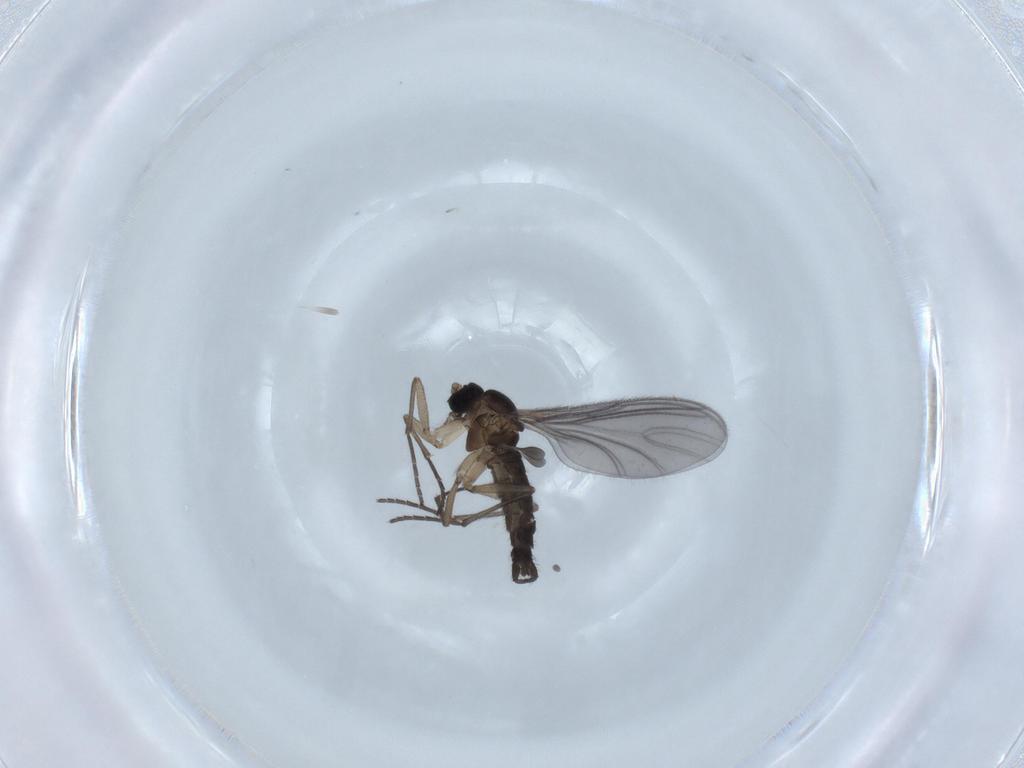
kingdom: Animalia
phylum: Arthropoda
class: Insecta
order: Diptera
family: Sciaridae
